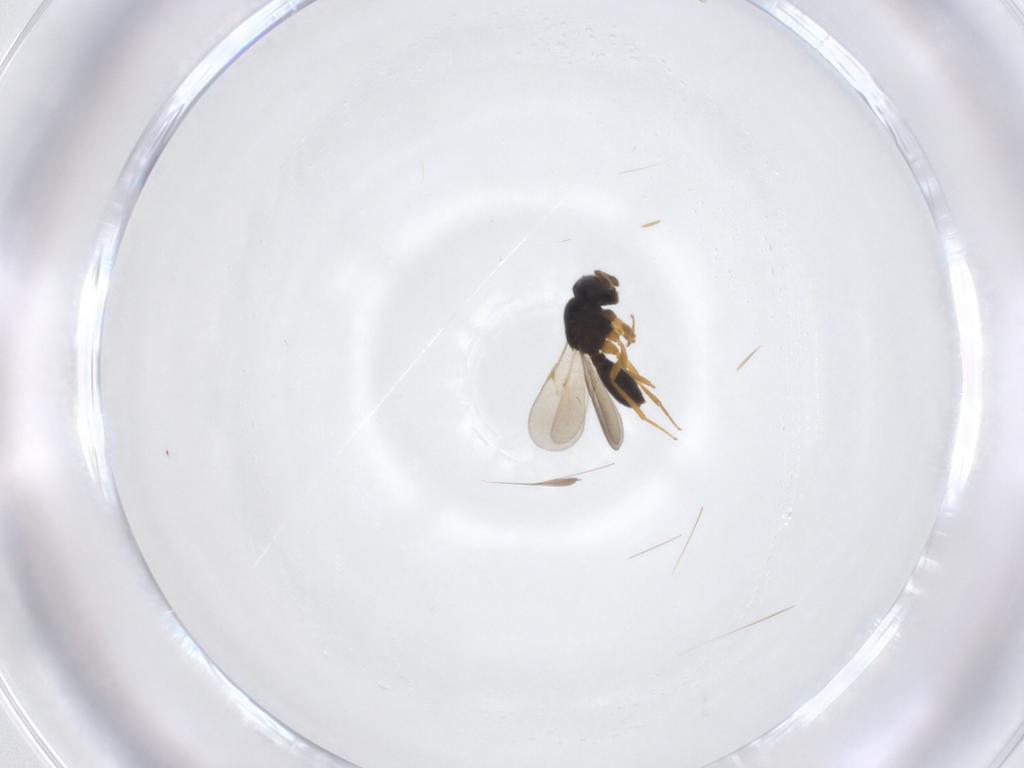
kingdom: Animalia
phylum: Arthropoda
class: Insecta
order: Hymenoptera
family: Scelionidae
